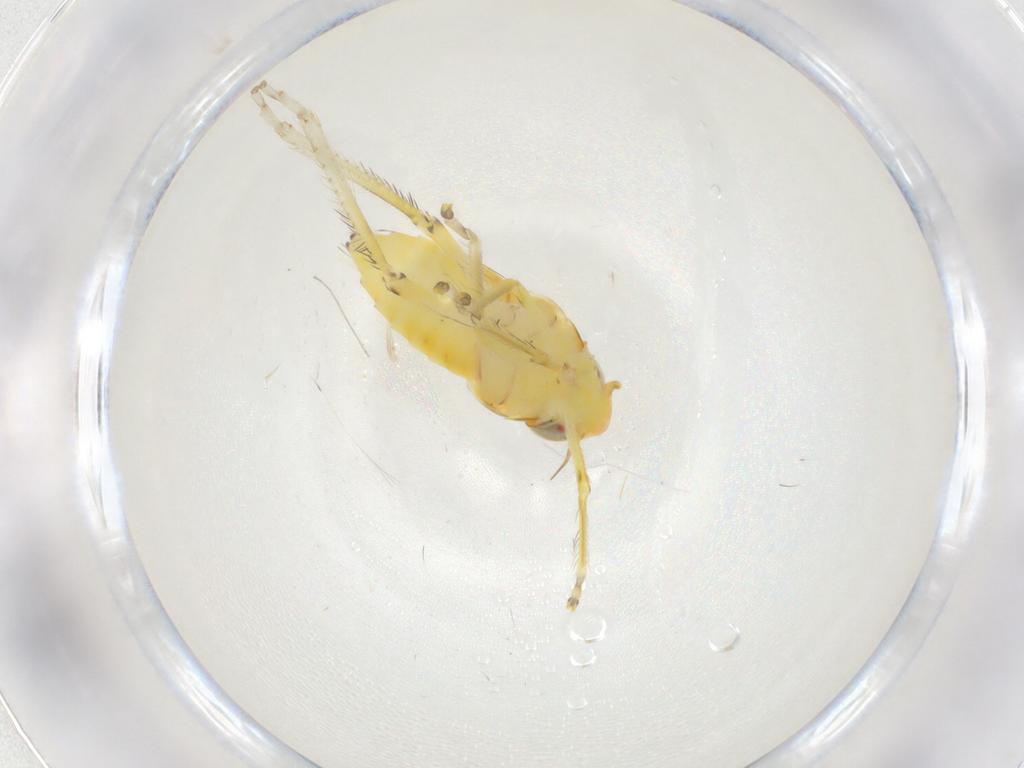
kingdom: Animalia
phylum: Arthropoda
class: Insecta
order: Hemiptera
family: Cicadellidae
